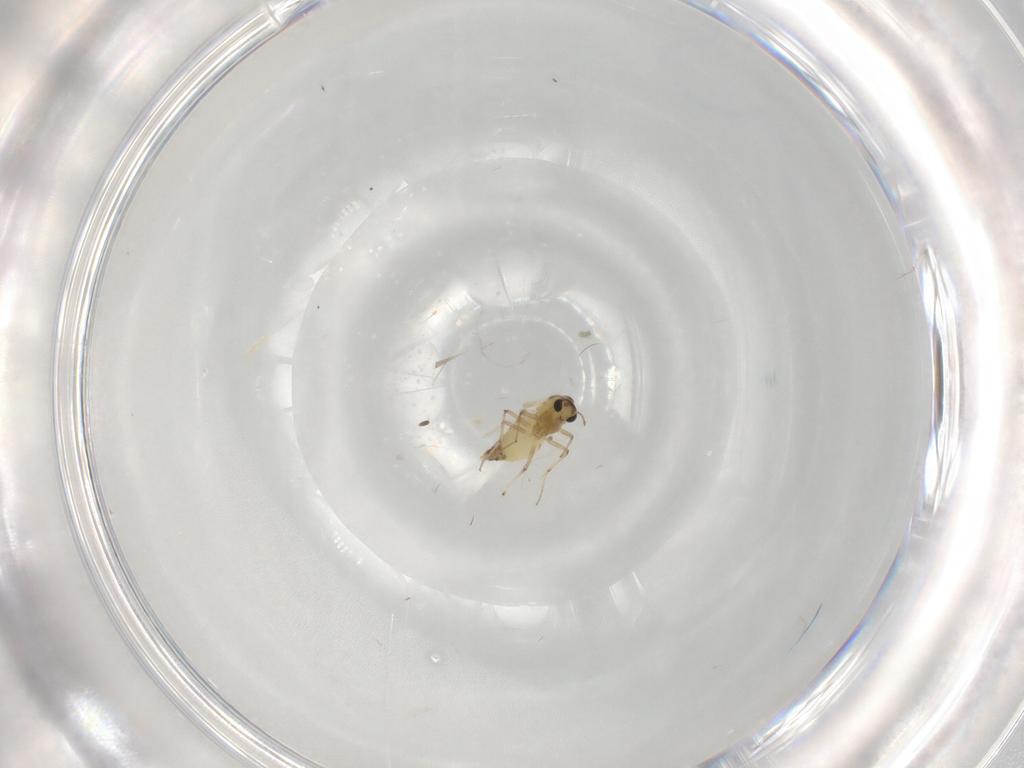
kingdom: Animalia
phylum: Arthropoda
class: Insecta
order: Diptera
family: Chironomidae
